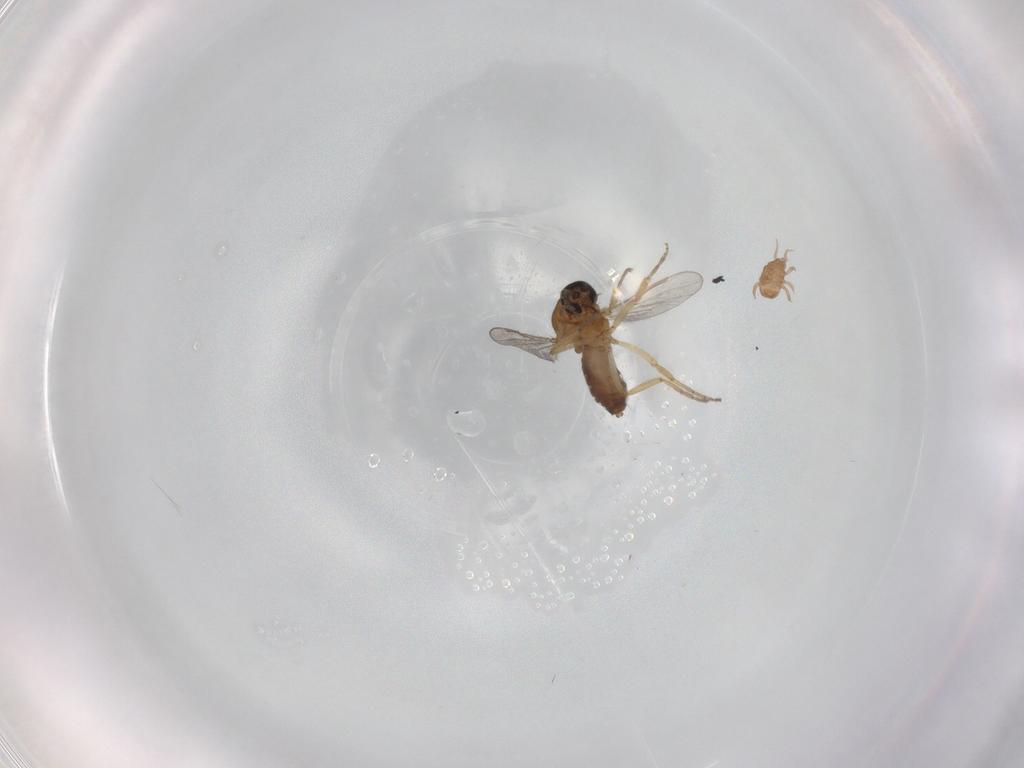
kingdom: Animalia
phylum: Arthropoda
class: Arachnida
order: Mesostigmata
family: Blattisociidae
